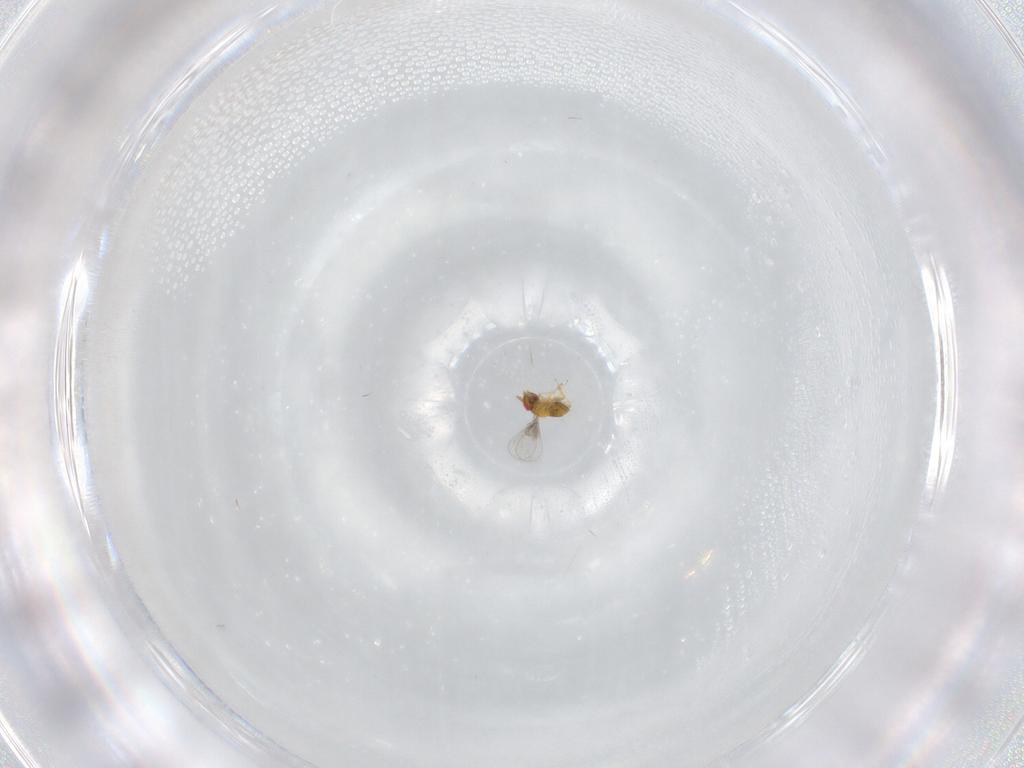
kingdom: Animalia
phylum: Arthropoda
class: Insecta
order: Hymenoptera
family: Trichogrammatidae
